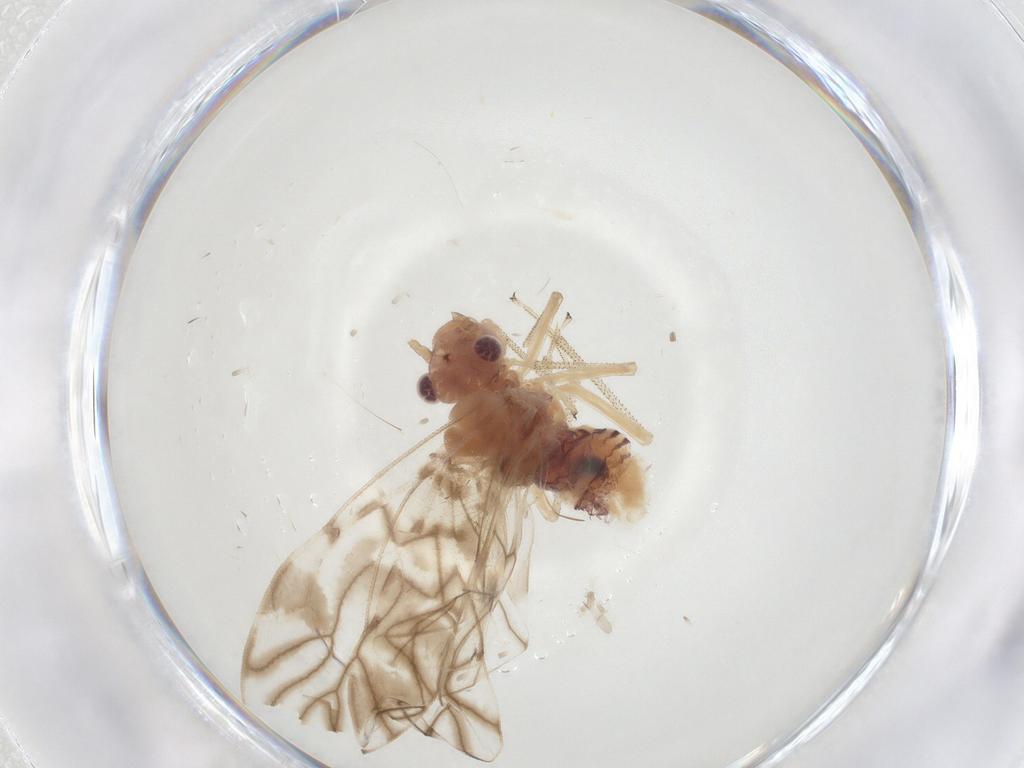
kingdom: Animalia
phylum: Arthropoda
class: Insecta
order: Psocodea
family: Amphipsocidae
